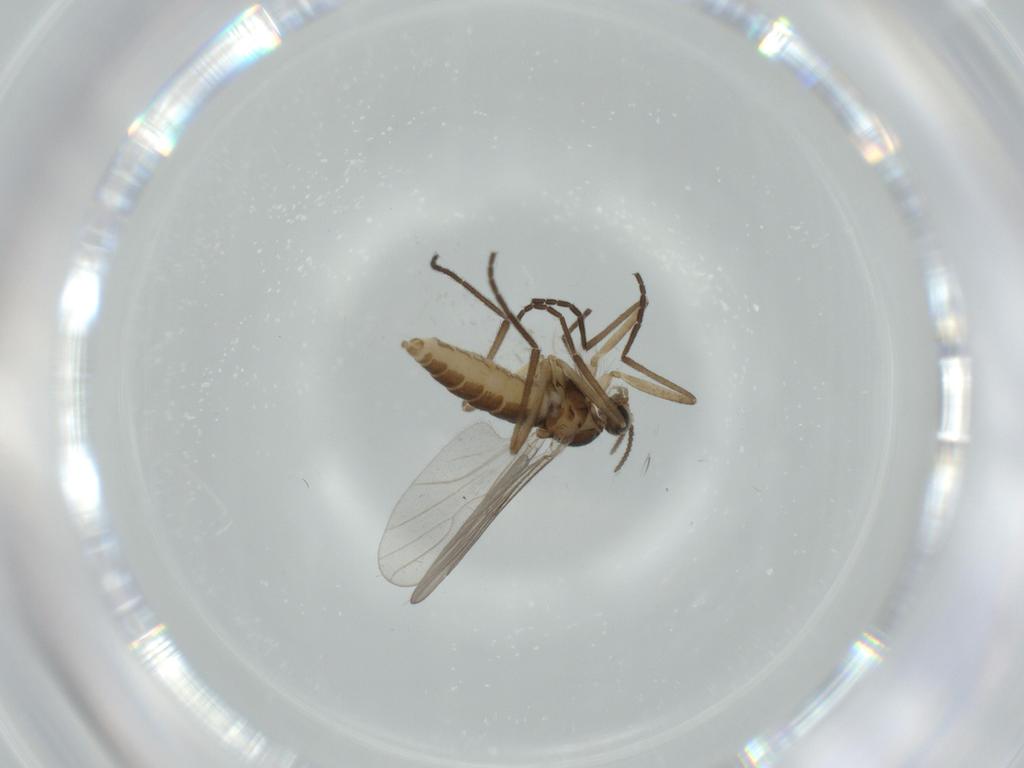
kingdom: Animalia
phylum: Arthropoda
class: Insecta
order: Diptera
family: Cecidomyiidae
